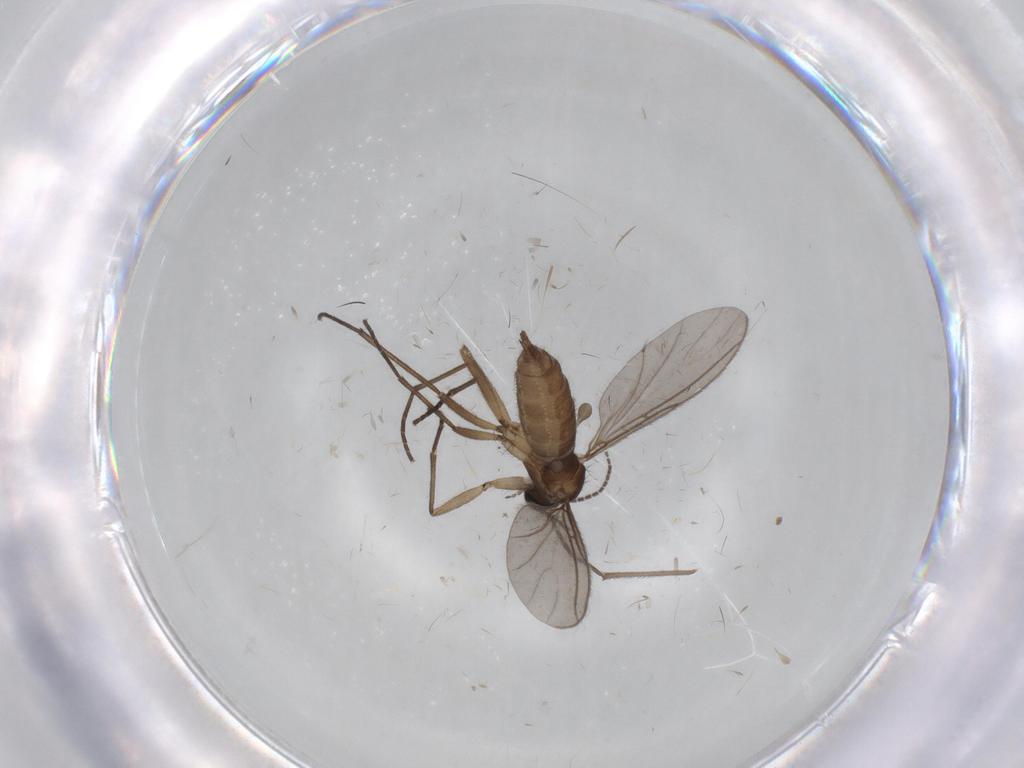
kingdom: Animalia
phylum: Arthropoda
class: Insecta
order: Diptera
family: Sciaridae
